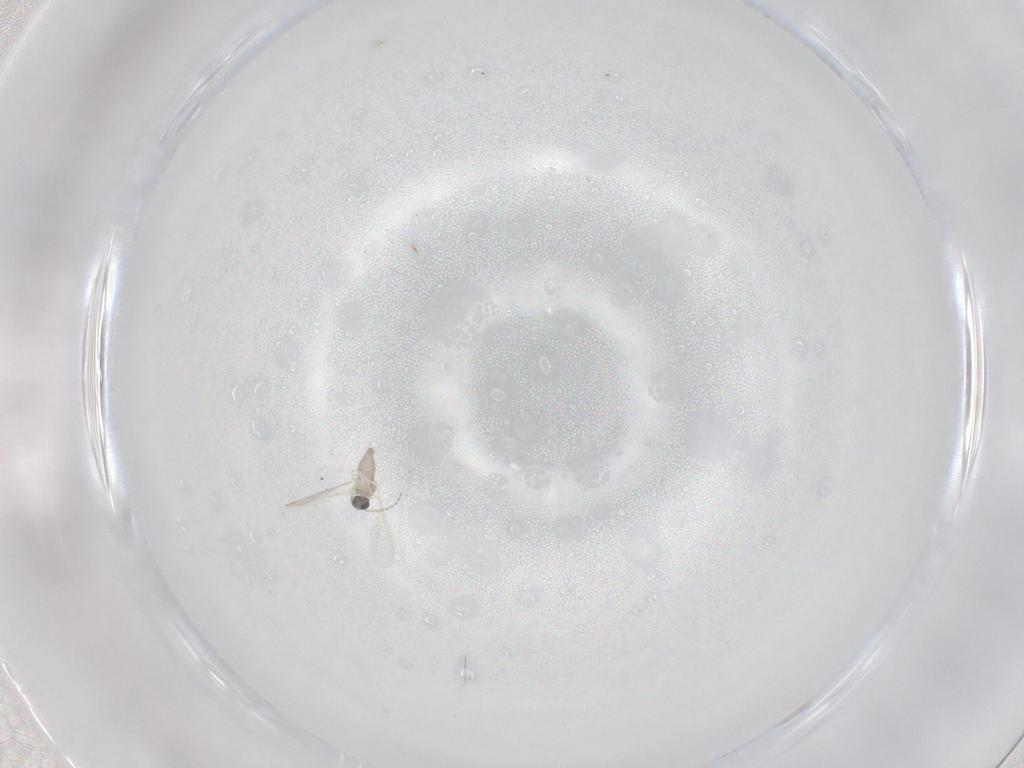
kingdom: Animalia
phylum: Arthropoda
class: Insecta
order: Diptera
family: Cecidomyiidae
